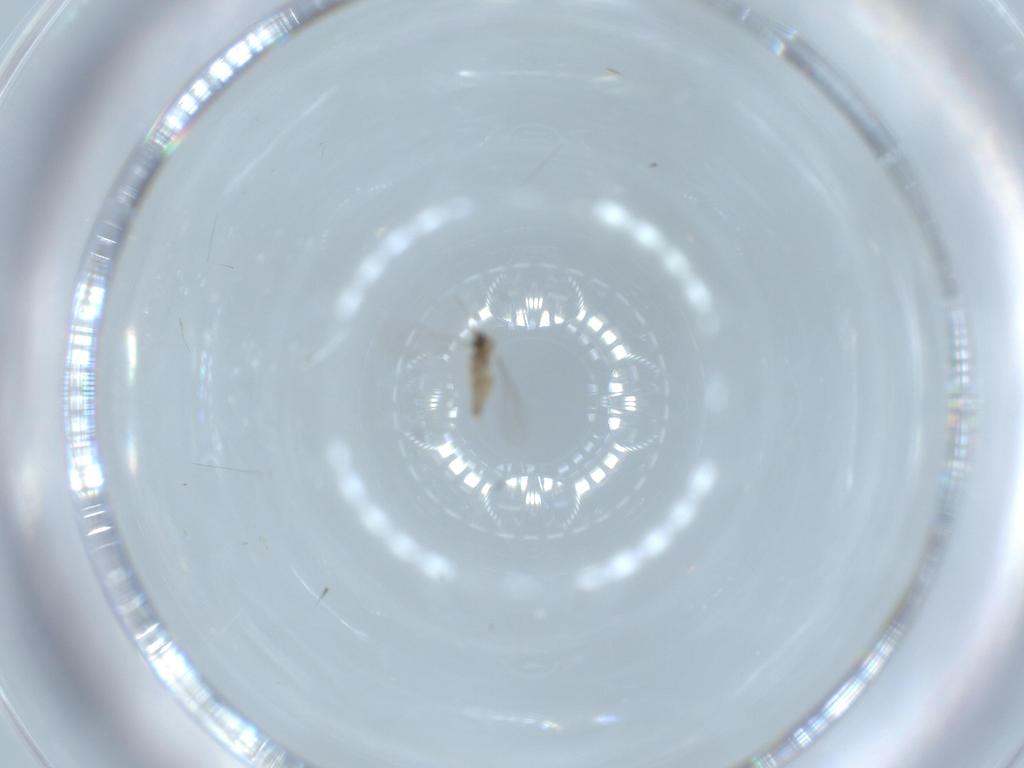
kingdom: Animalia
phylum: Arthropoda
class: Insecta
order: Diptera
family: Cecidomyiidae
